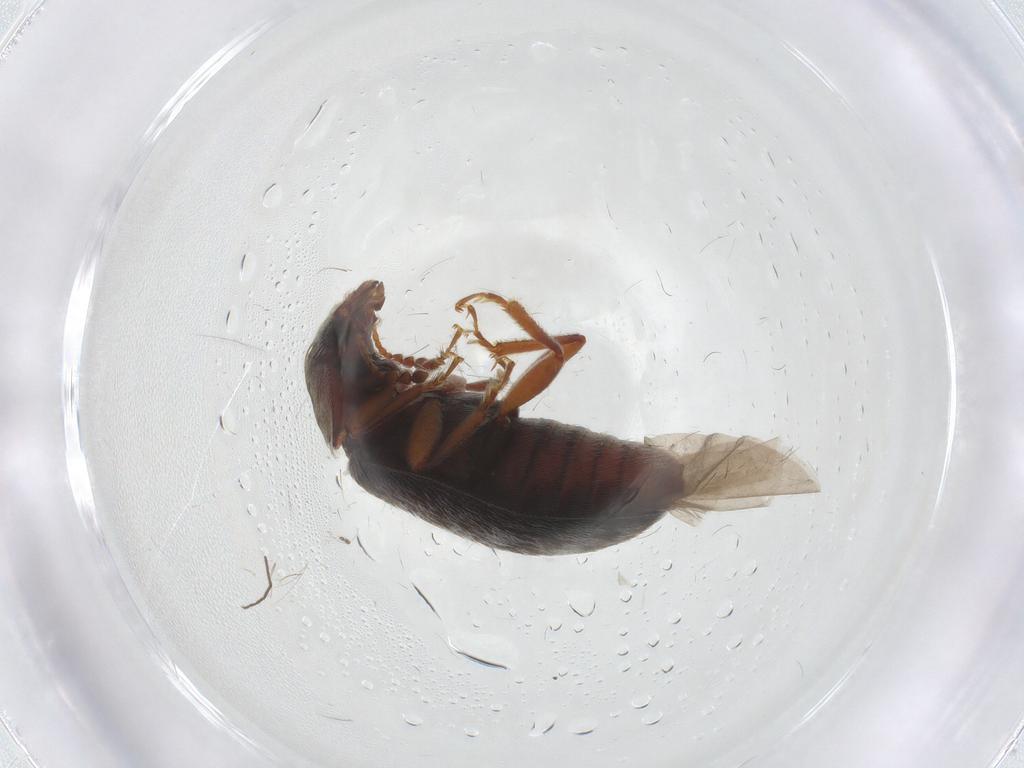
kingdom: Animalia
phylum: Arthropoda
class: Insecta
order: Coleoptera
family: Byturidae
